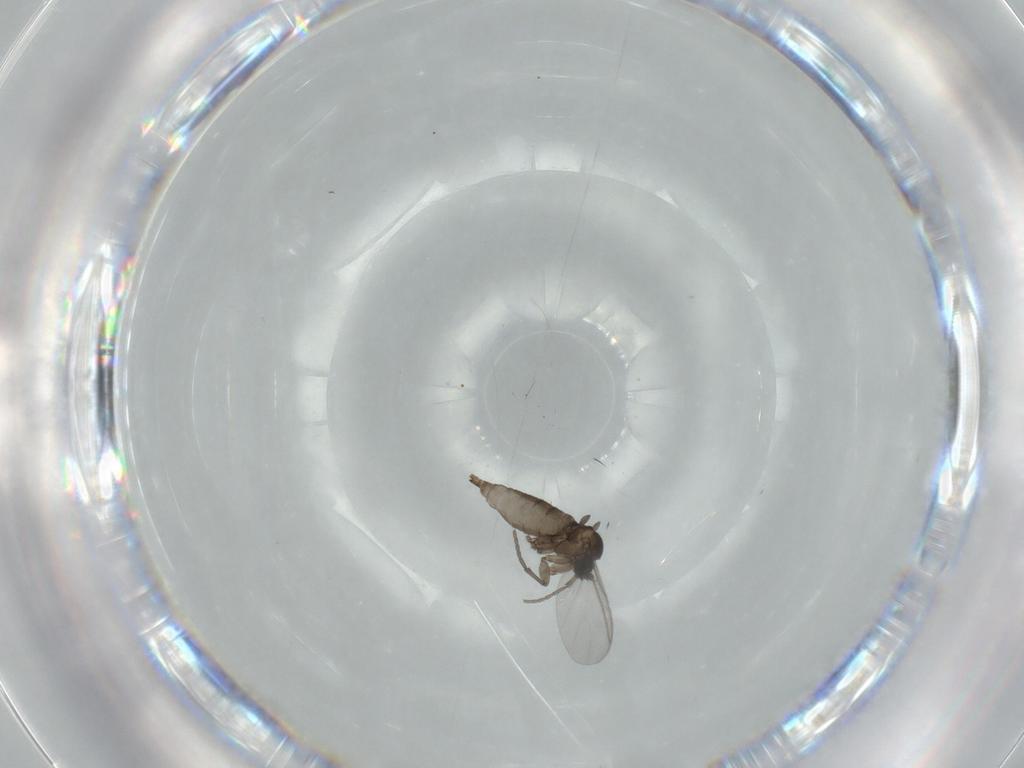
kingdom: Animalia
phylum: Arthropoda
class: Insecta
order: Diptera
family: Sciaridae
